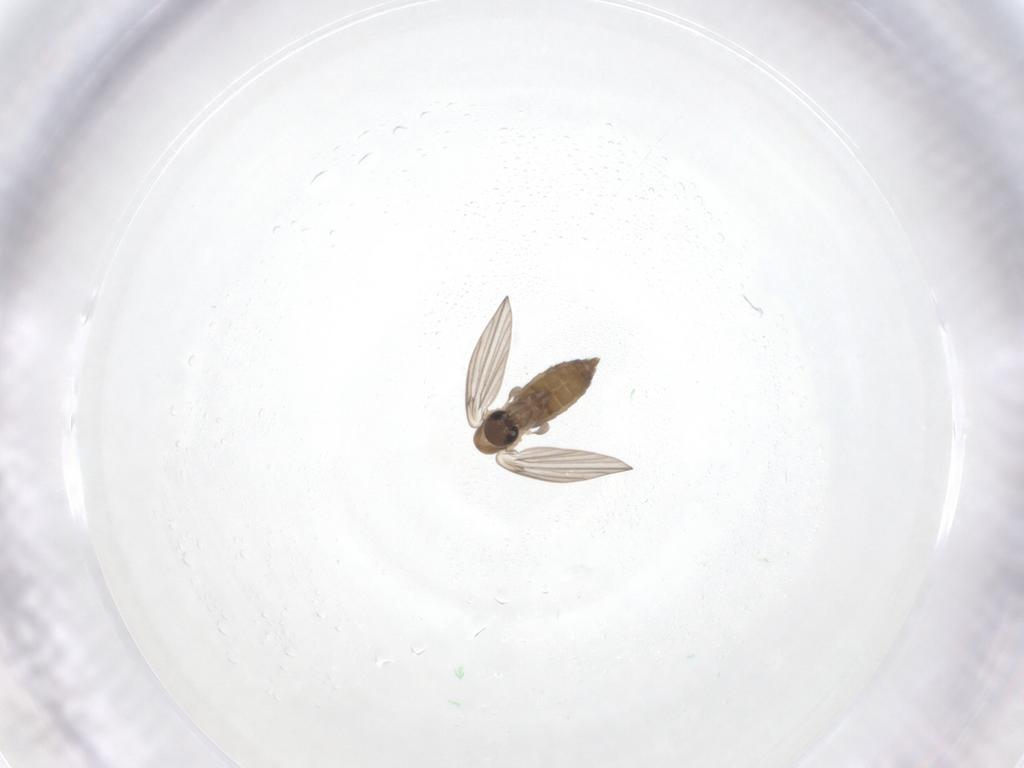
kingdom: Animalia
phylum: Arthropoda
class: Insecta
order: Diptera
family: Psychodidae
